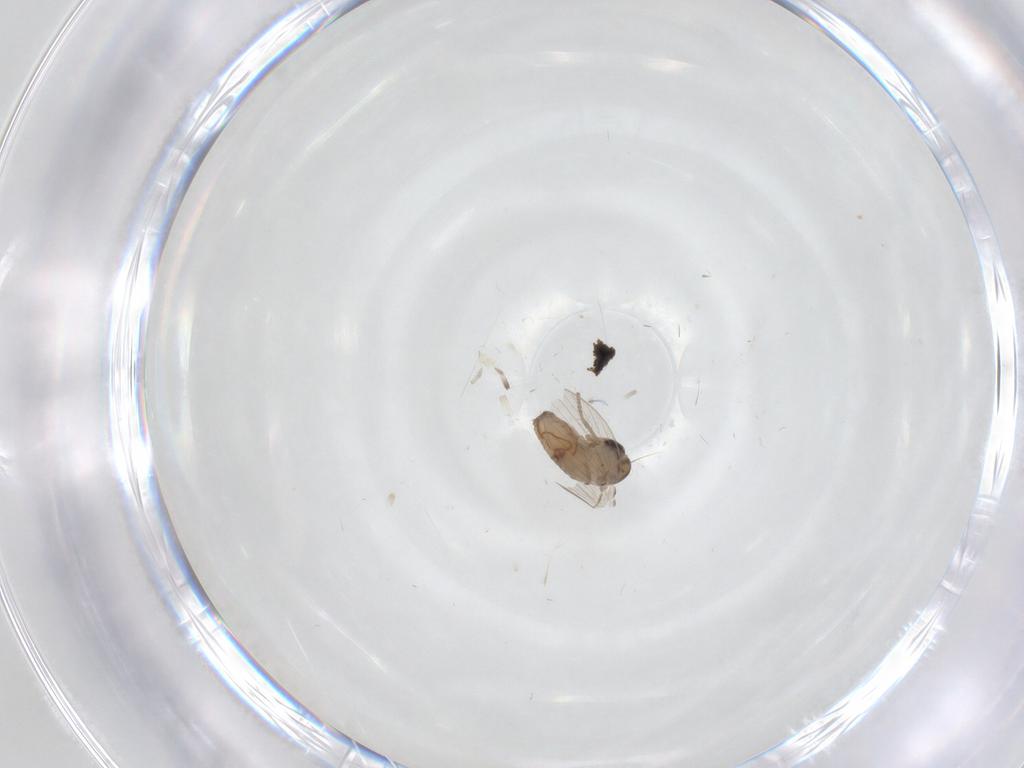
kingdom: Animalia
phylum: Arthropoda
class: Insecta
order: Diptera
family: Psychodidae
